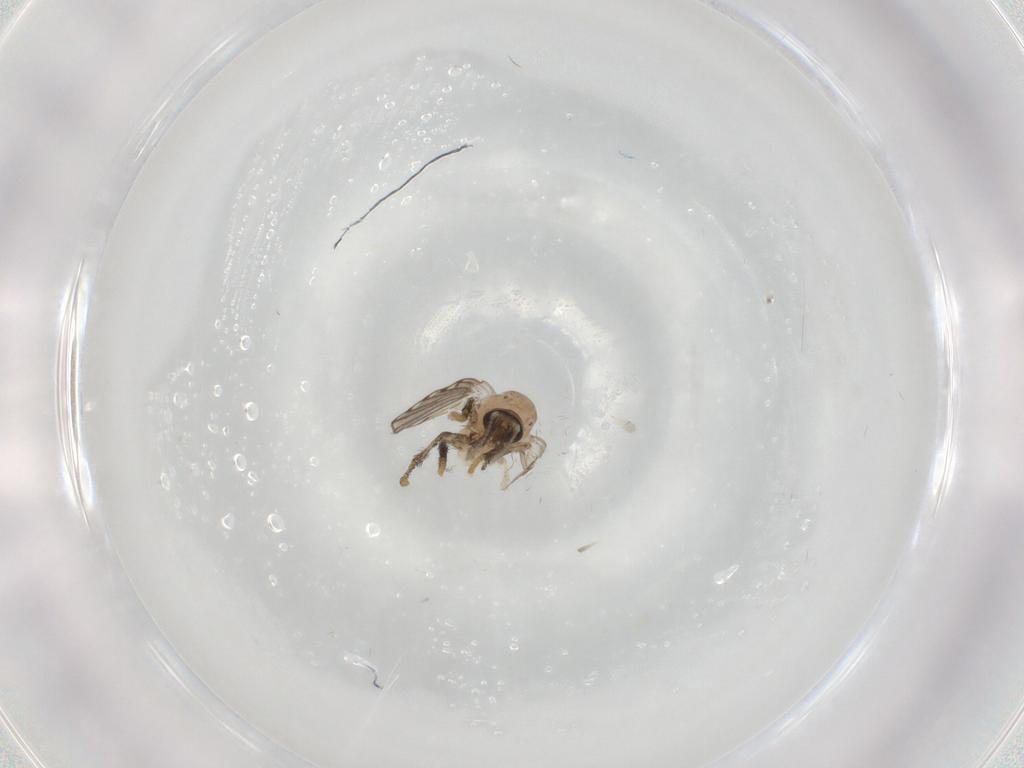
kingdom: Animalia
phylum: Arthropoda
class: Insecta
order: Diptera
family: Psychodidae
